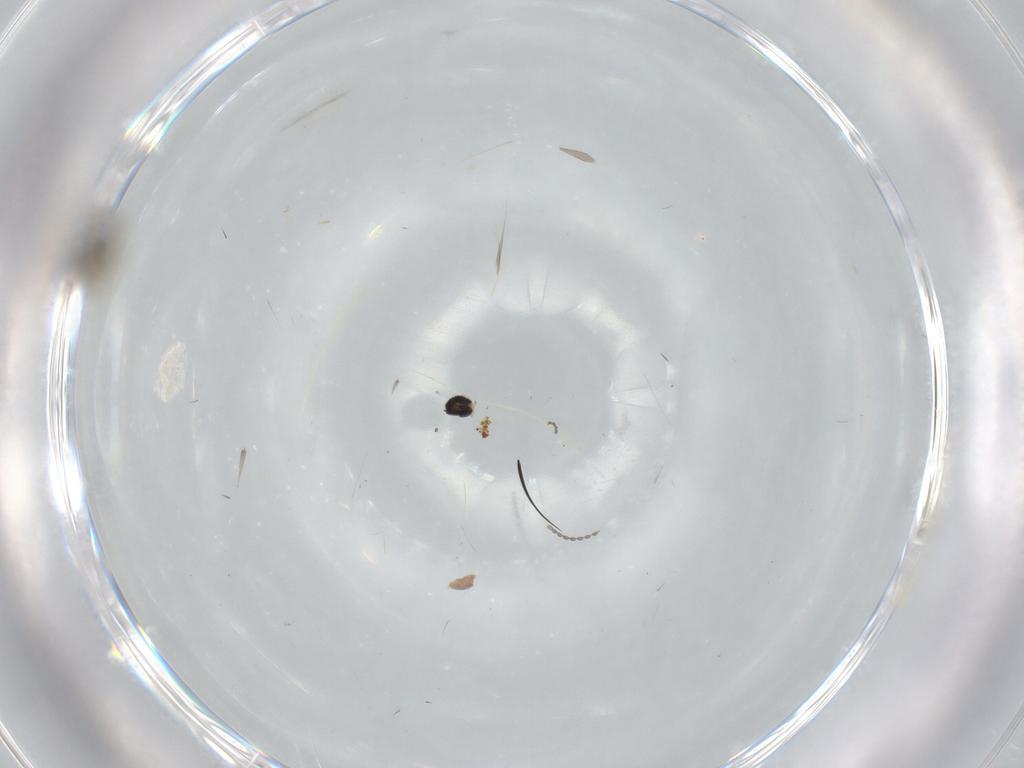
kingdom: Animalia
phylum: Arthropoda
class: Insecta
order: Diptera
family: Cecidomyiidae
